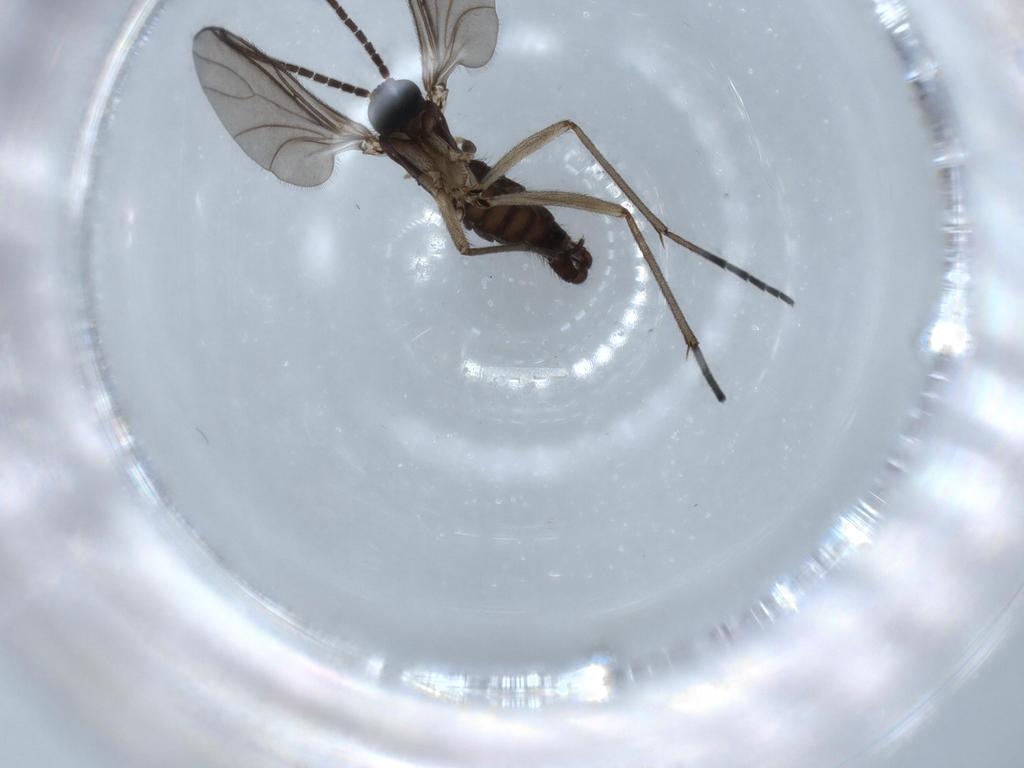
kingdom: Animalia
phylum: Arthropoda
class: Insecta
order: Diptera
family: Sciaridae
